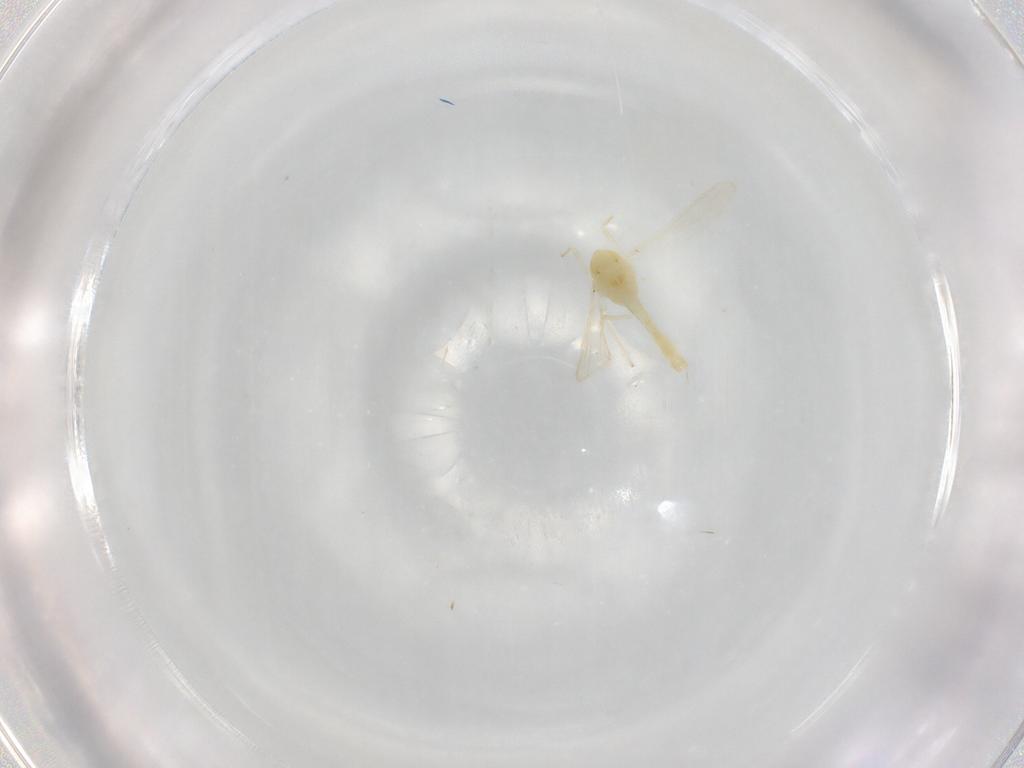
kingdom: Animalia
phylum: Arthropoda
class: Insecta
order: Diptera
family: Chironomidae
